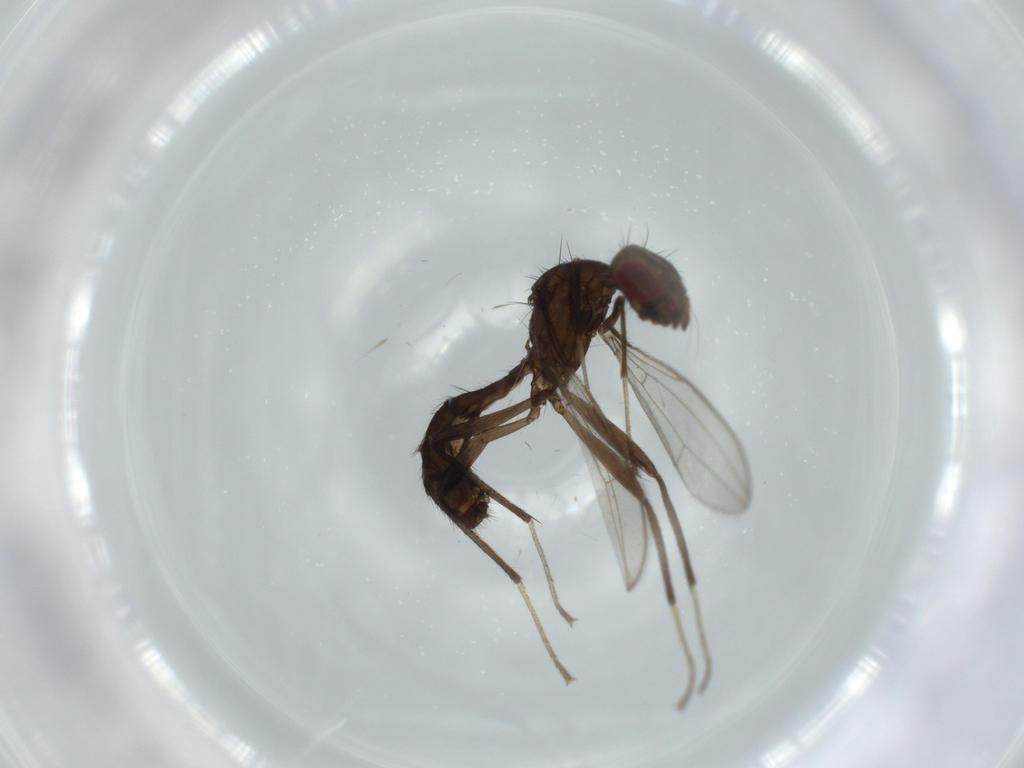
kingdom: Animalia
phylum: Arthropoda
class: Insecta
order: Diptera
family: Richardiidae
